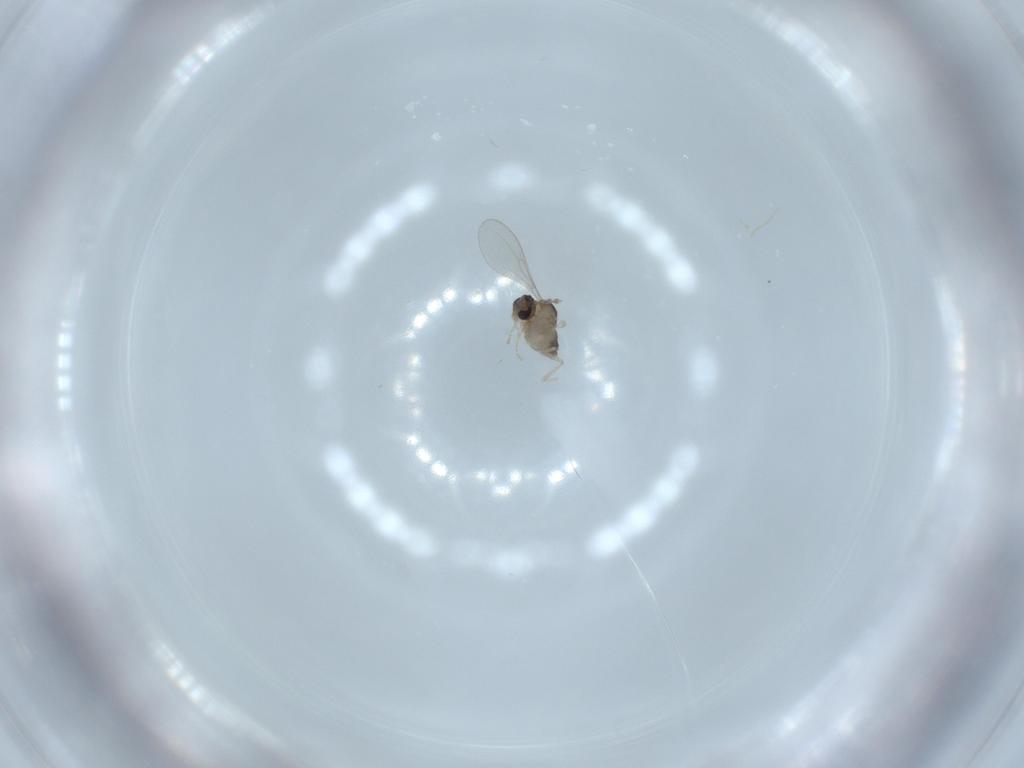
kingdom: Animalia
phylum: Arthropoda
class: Insecta
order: Diptera
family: Cecidomyiidae
